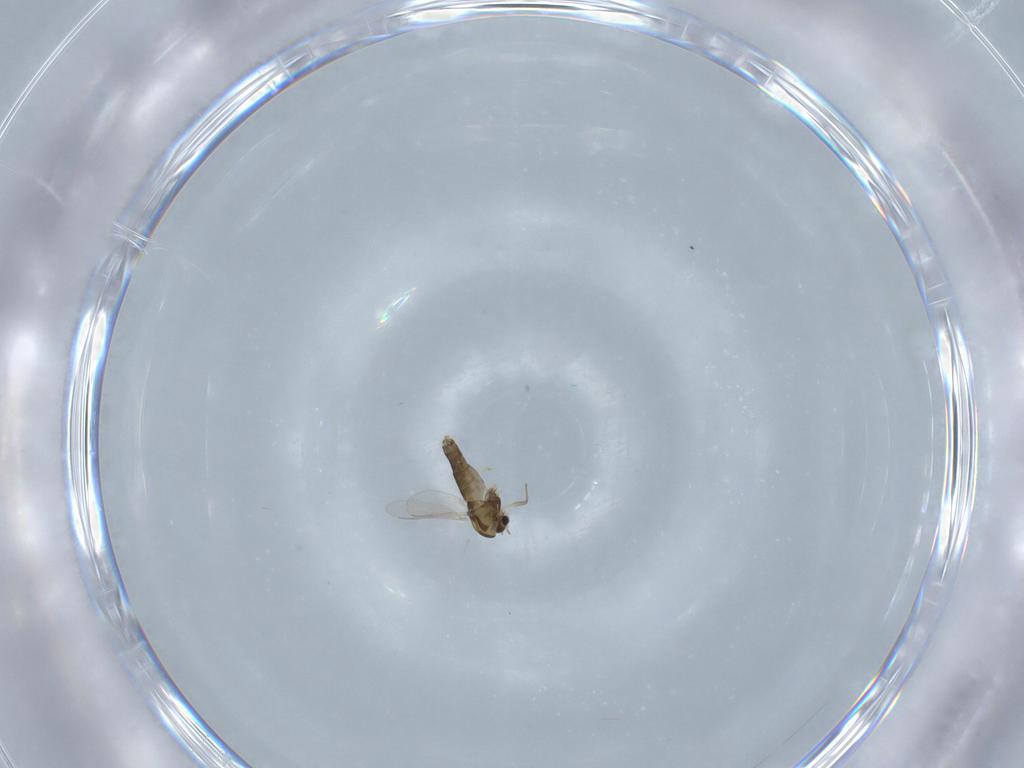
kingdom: Animalia
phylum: Arthropoda
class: Insecta
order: Diptera
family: Chironomidae
